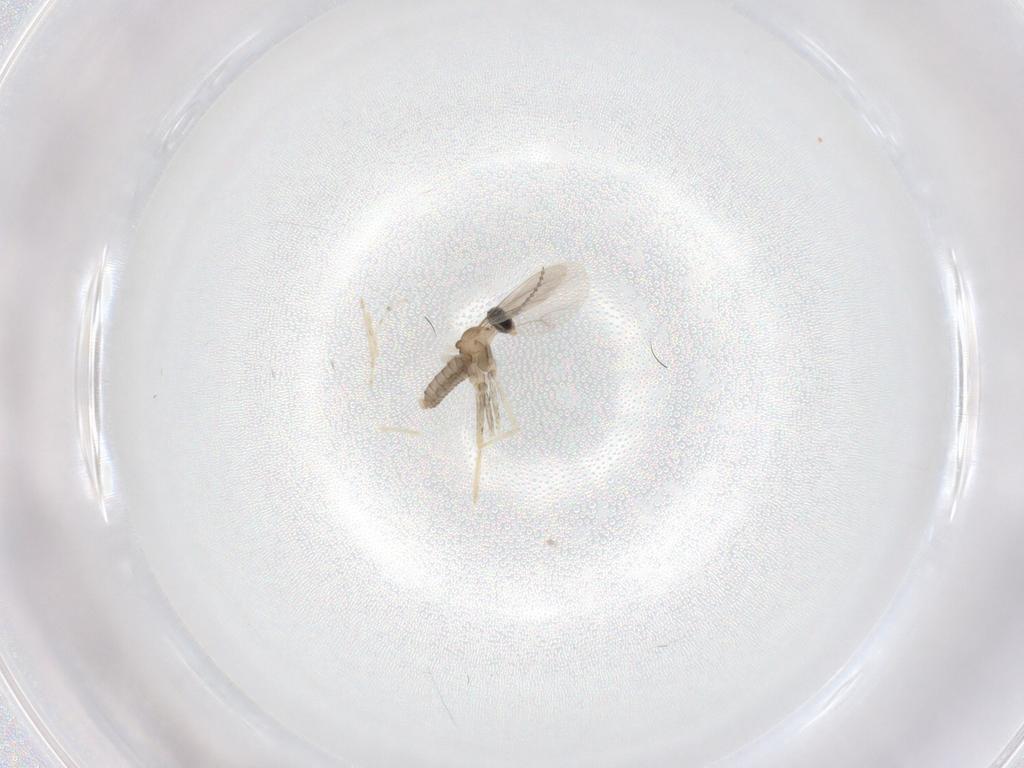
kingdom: Animalia
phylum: Arthropoda
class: Insecta
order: Diptera
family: Cecidomyiidae
